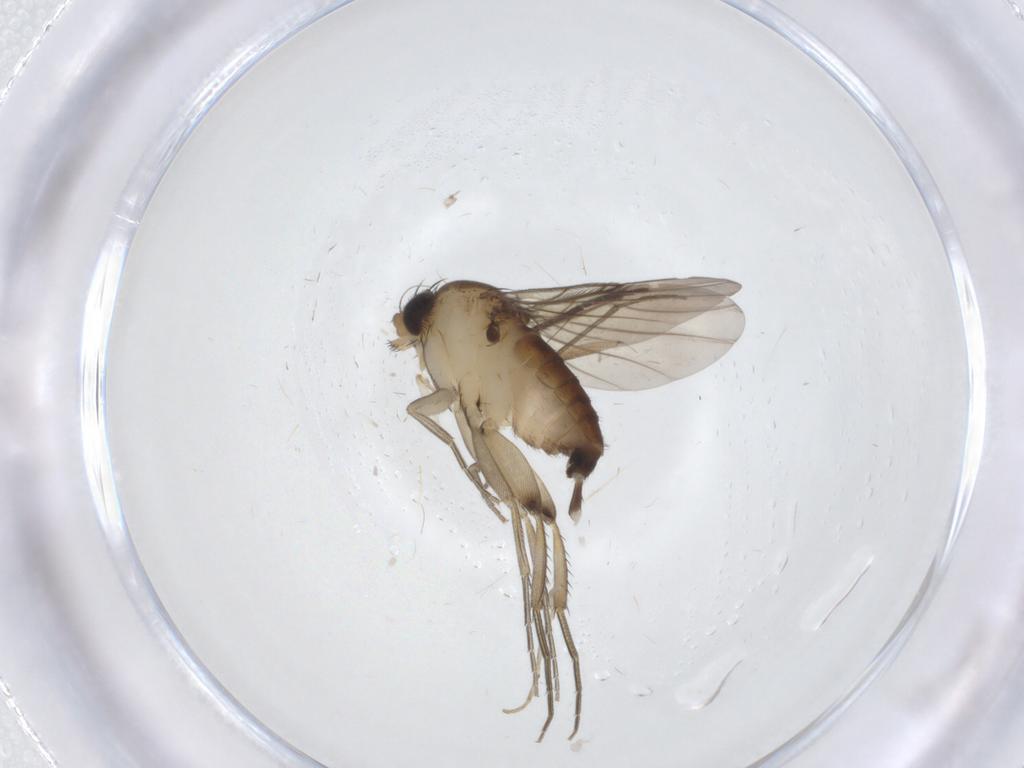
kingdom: Animalia
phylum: Arthropoda
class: Insecta
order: Diptera
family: Phoridae
